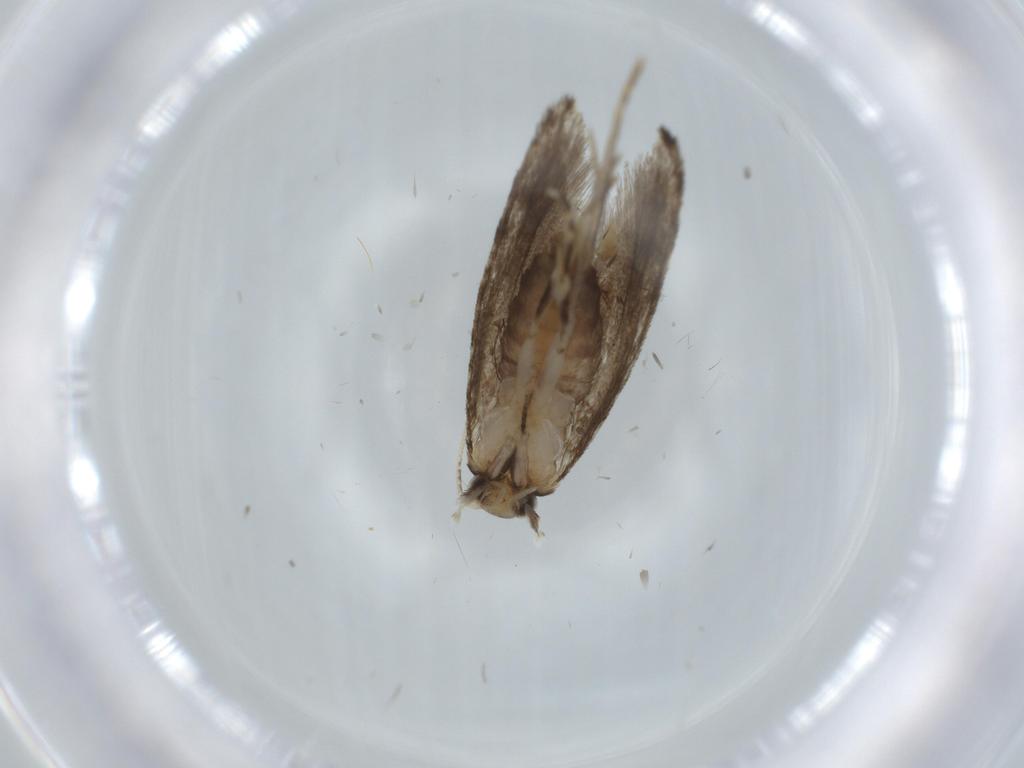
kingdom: Animalia
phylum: Arthropoda
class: Insecta
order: Lepidoptera
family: Tineidae
